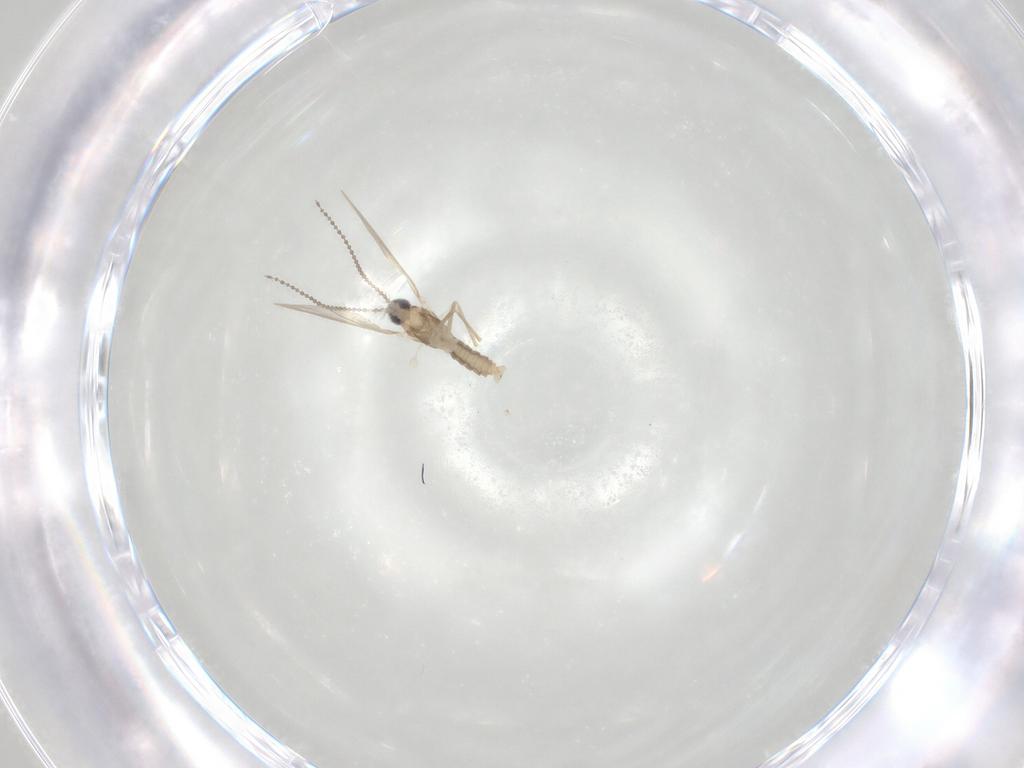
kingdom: Animalia
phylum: Arthropoda
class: Insecta
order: Diptera
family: Cecidomyiidae
